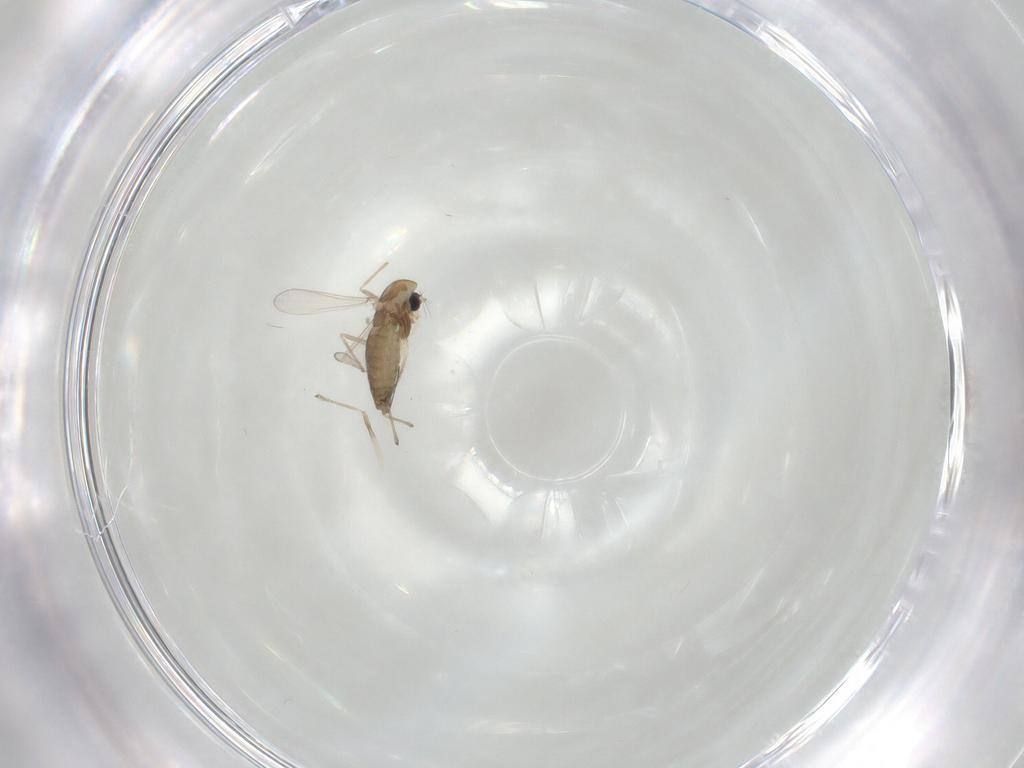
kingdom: Animalia
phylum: Arthropoda
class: Insecta
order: Diptera
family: Chironomidae
